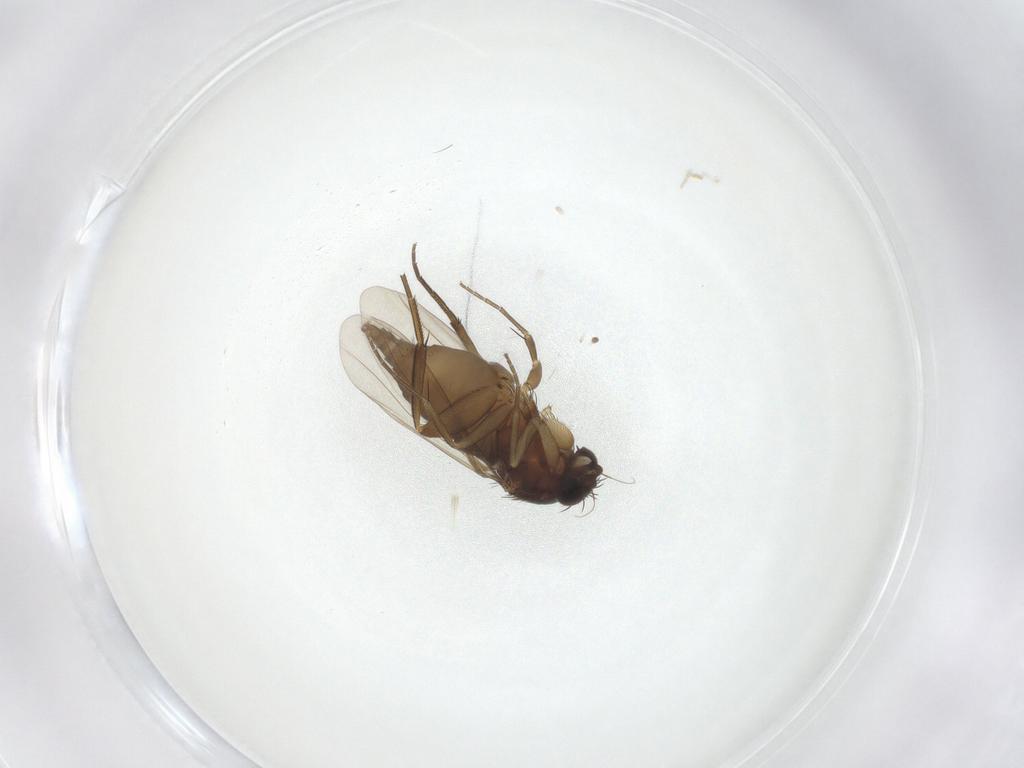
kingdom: Animalia
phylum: Arthropoda
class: Insecta
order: Diptera
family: Phoridae
